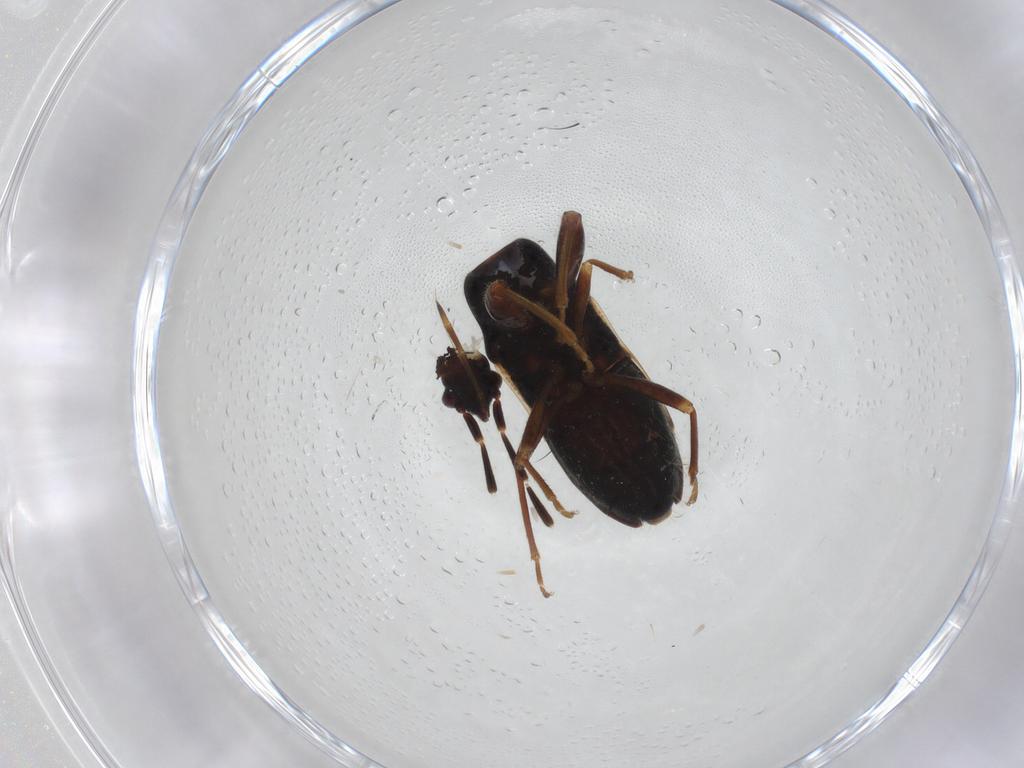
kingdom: Animalia
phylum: Arthropoda
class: Insecta
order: Hemiptera
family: Rhyparochromidae
